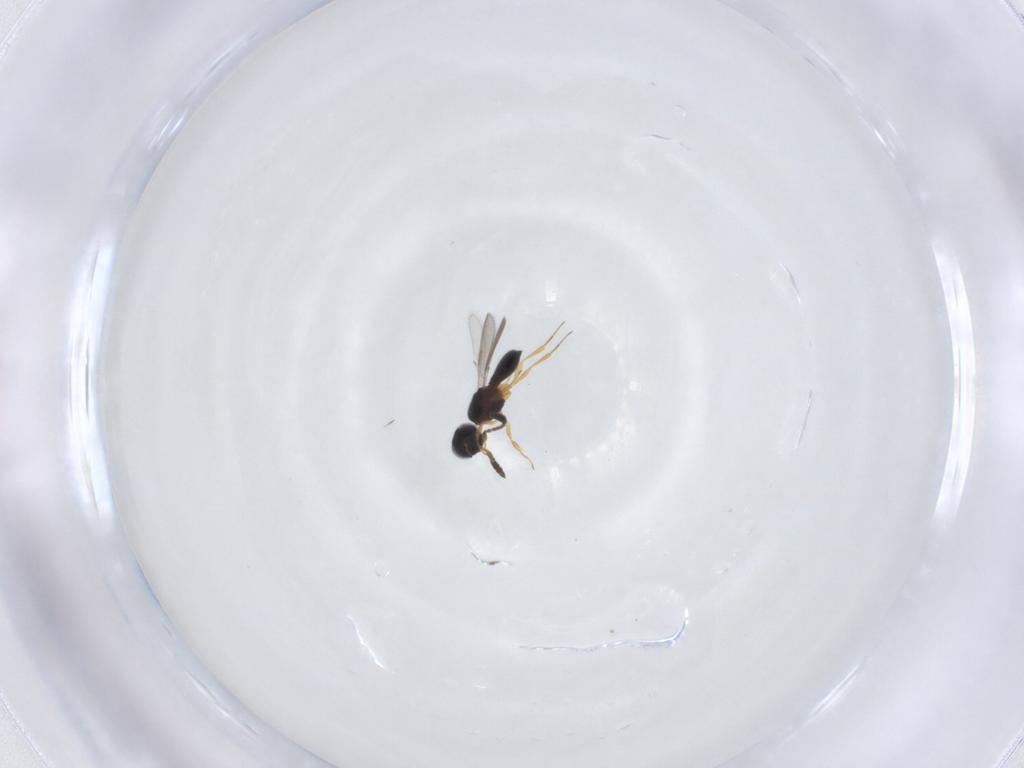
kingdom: Animalia
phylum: Arthropoda
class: Insecta
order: Hymenoptera
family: Scelionidae
